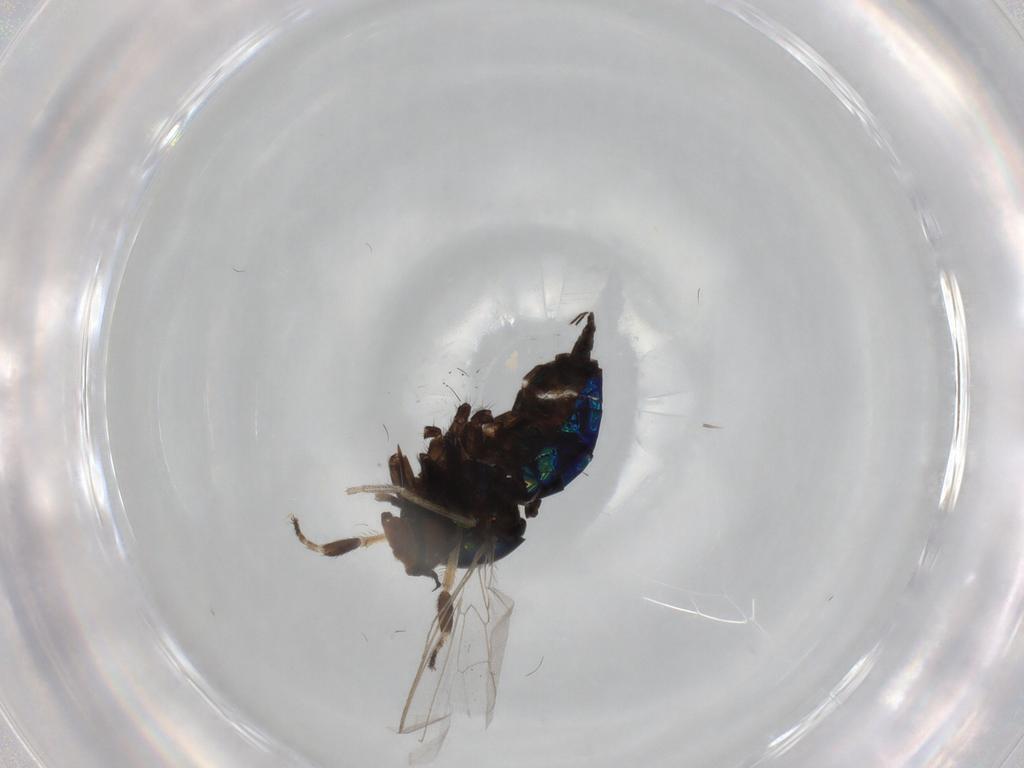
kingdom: Animalia
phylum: Arthropoda
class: Insecta
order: Diptera
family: Empididae
